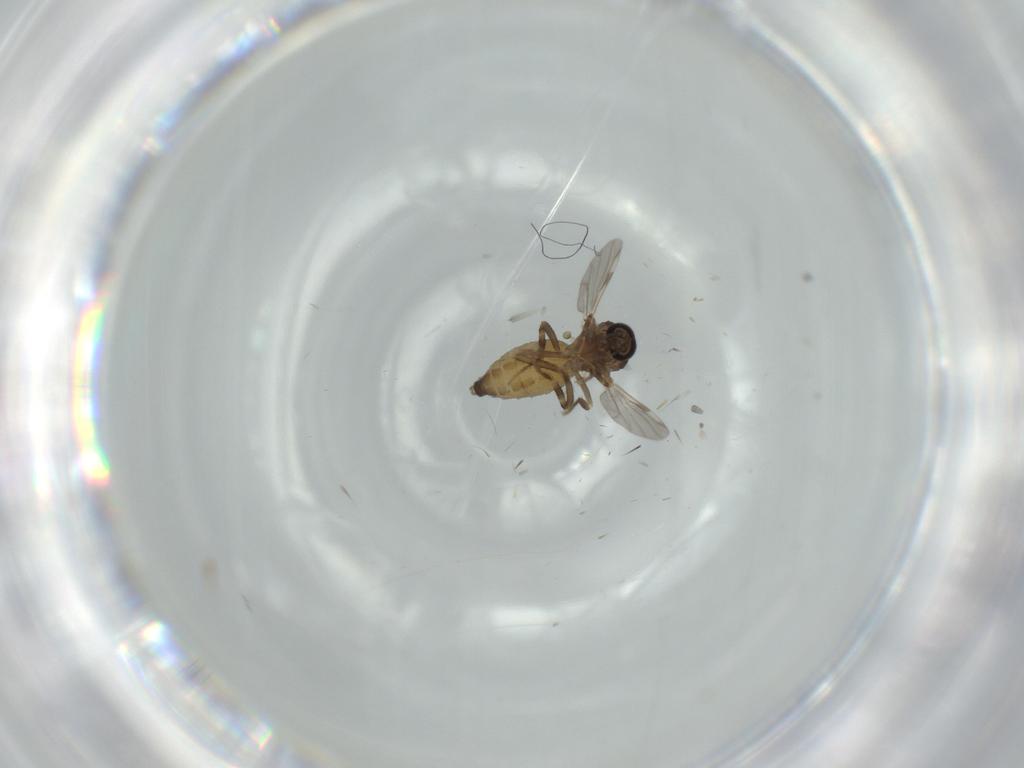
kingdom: Animalia
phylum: Arthropoda
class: Insecta
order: Diptera
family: Ceratopogonidae
